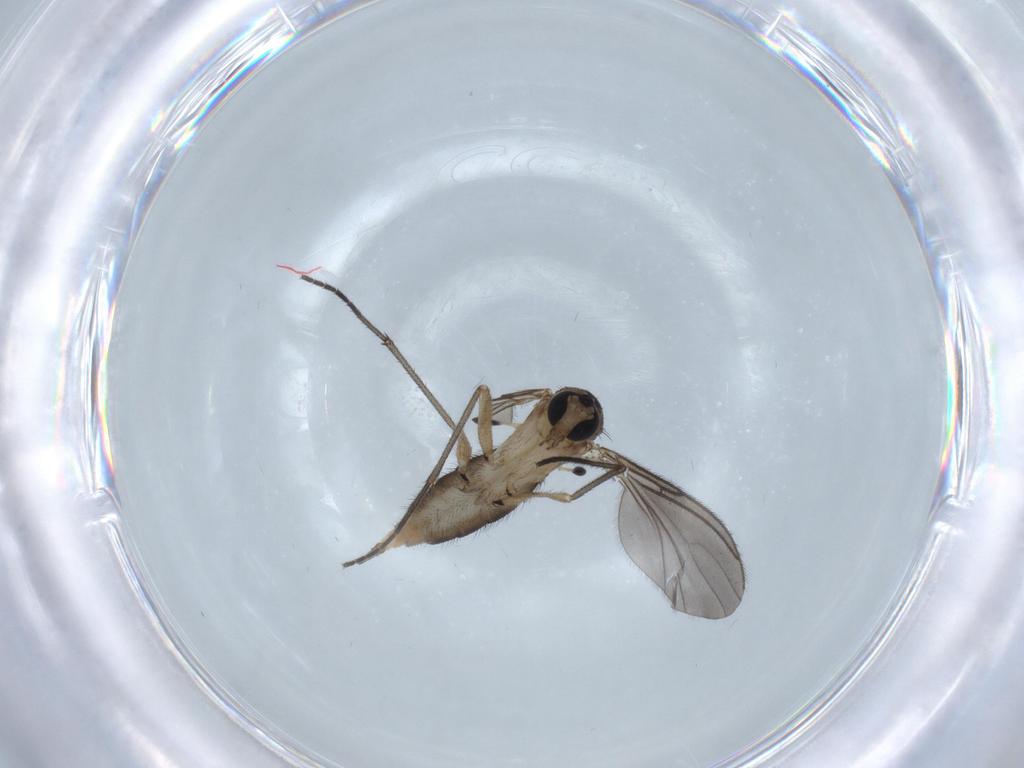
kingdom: Animalia
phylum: Arthropoda
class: Insecta
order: Diptera
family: Sciaridae
